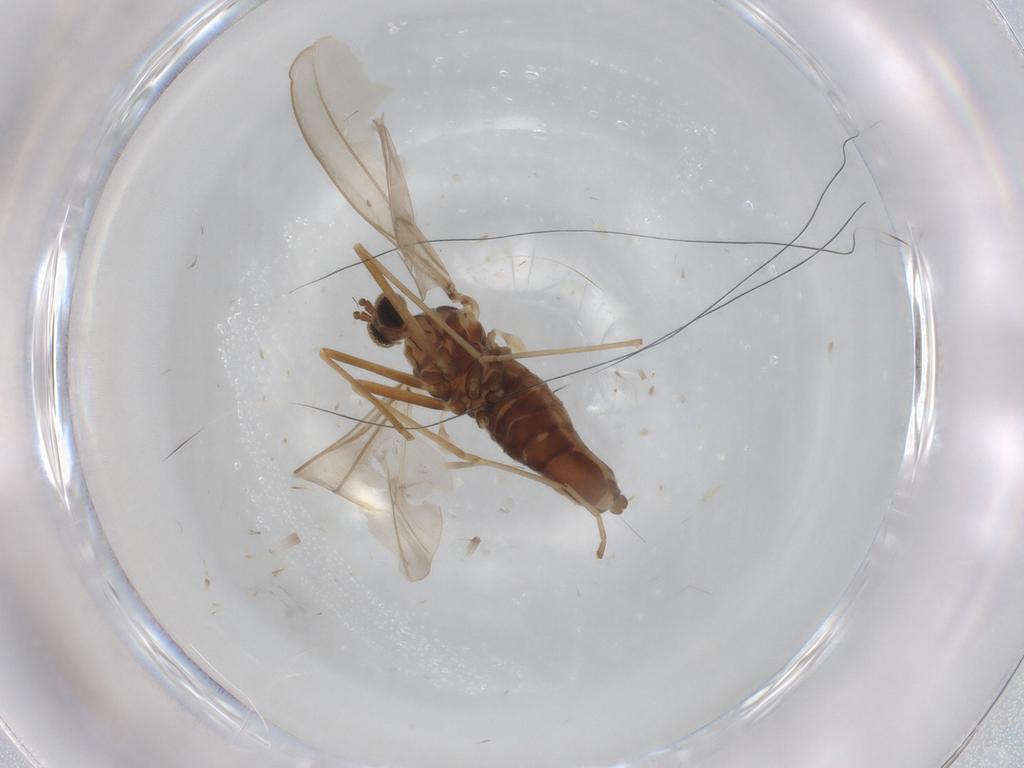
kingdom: Animalia
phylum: Arthropoda
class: Insecta
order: Diptera
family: Cecidomyiidae
